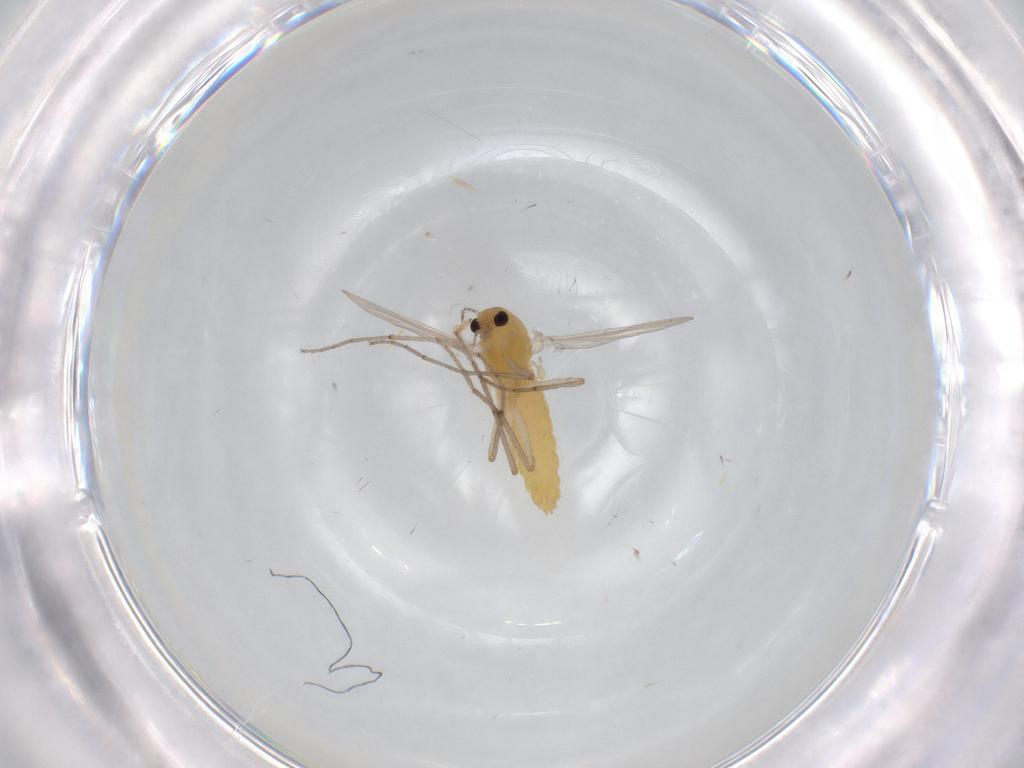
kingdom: Animalia
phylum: Arthropoda
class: Insecta
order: Diptera
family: Chironomidae
